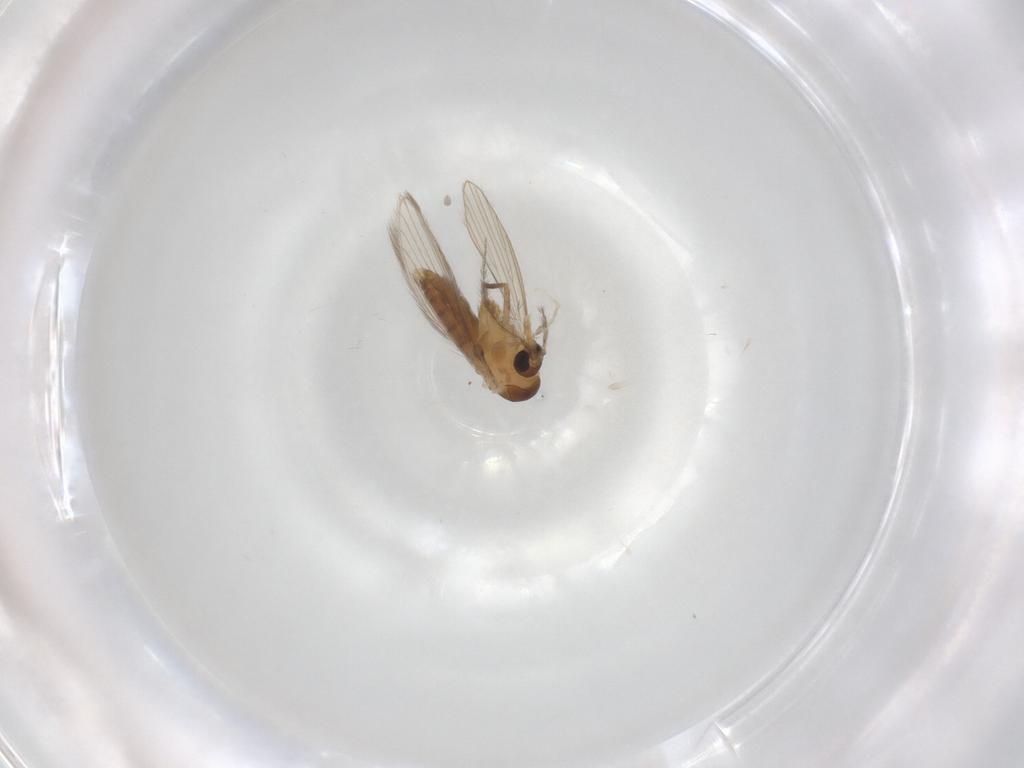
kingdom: Animalia
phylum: Arthropoda
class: Insecta
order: Diptera
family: Psychodidae
